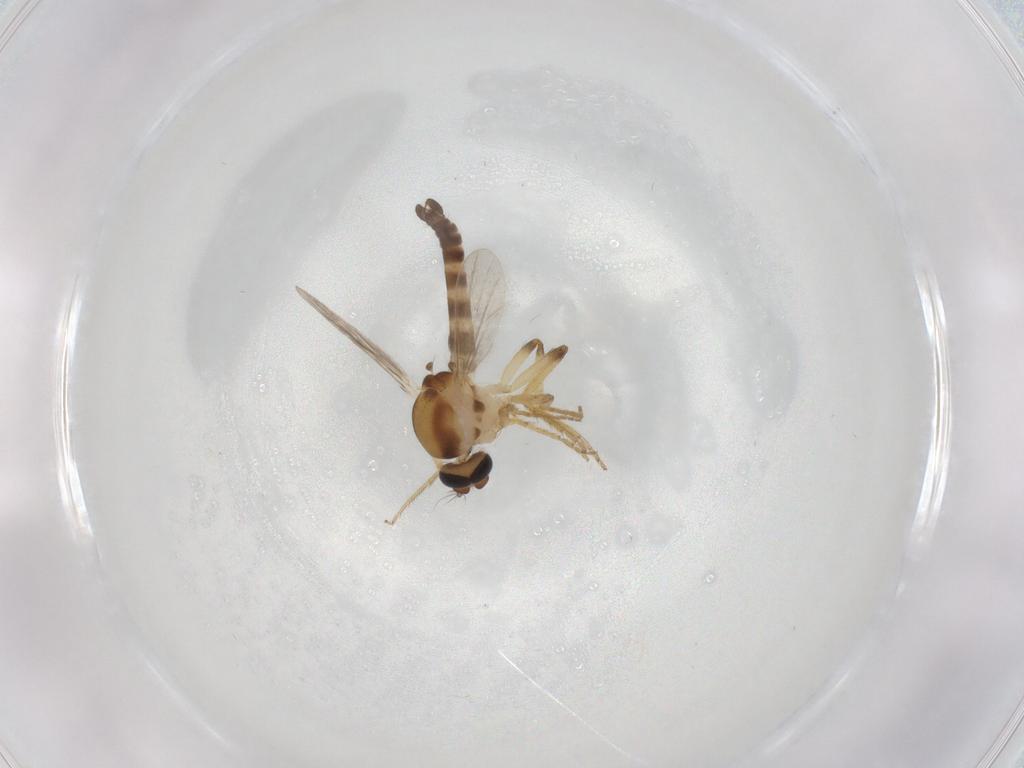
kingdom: Animalia
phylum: Arthropoda
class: Insecta
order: Diptera
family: Ceratopogonidae
